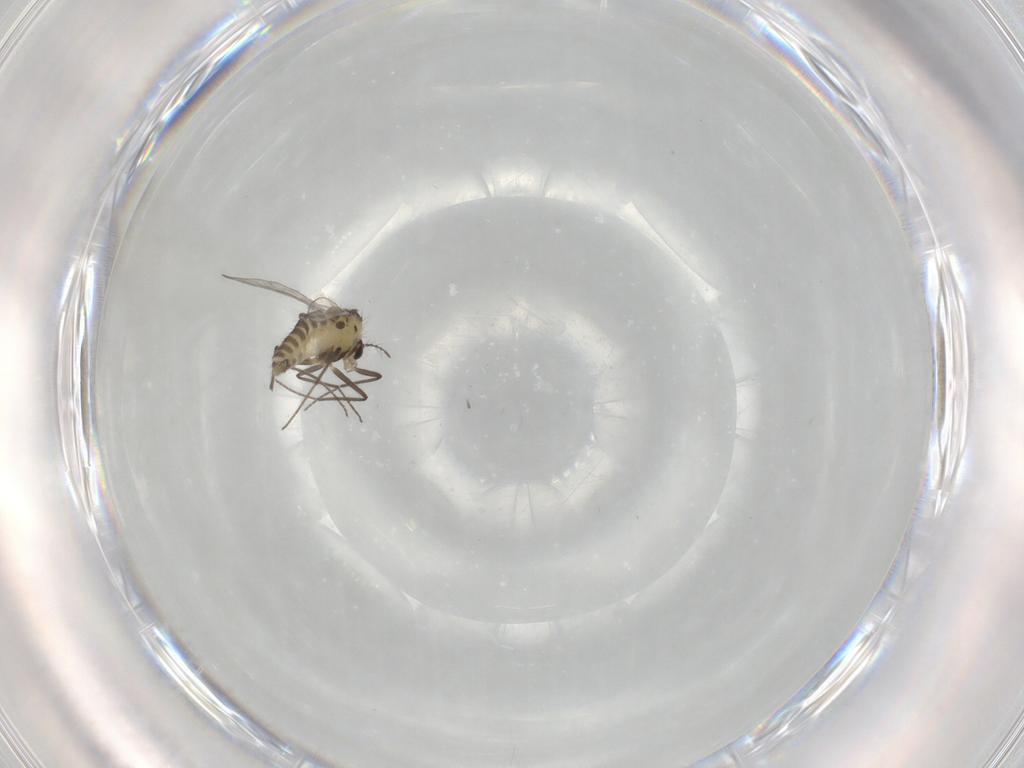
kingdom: Animalia
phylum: Arthropoda
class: Insecta
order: Diptera
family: Chironomidae
